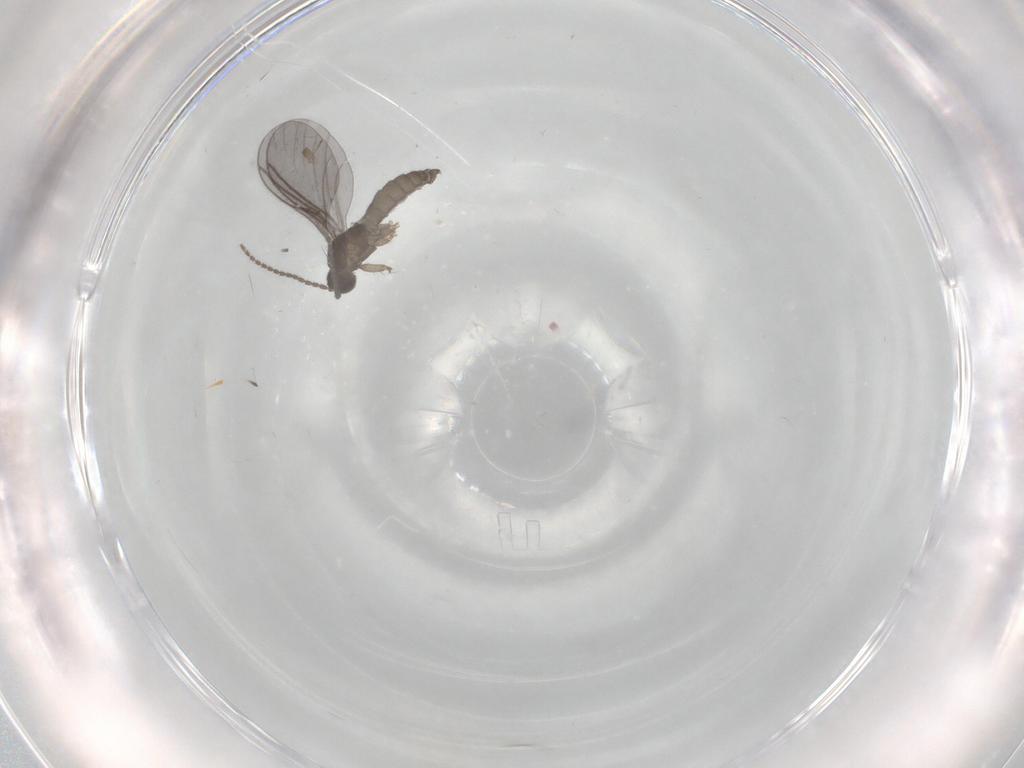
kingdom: Animalia
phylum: Arthropoda
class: Insecta
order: Diptera
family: Sciaridae
